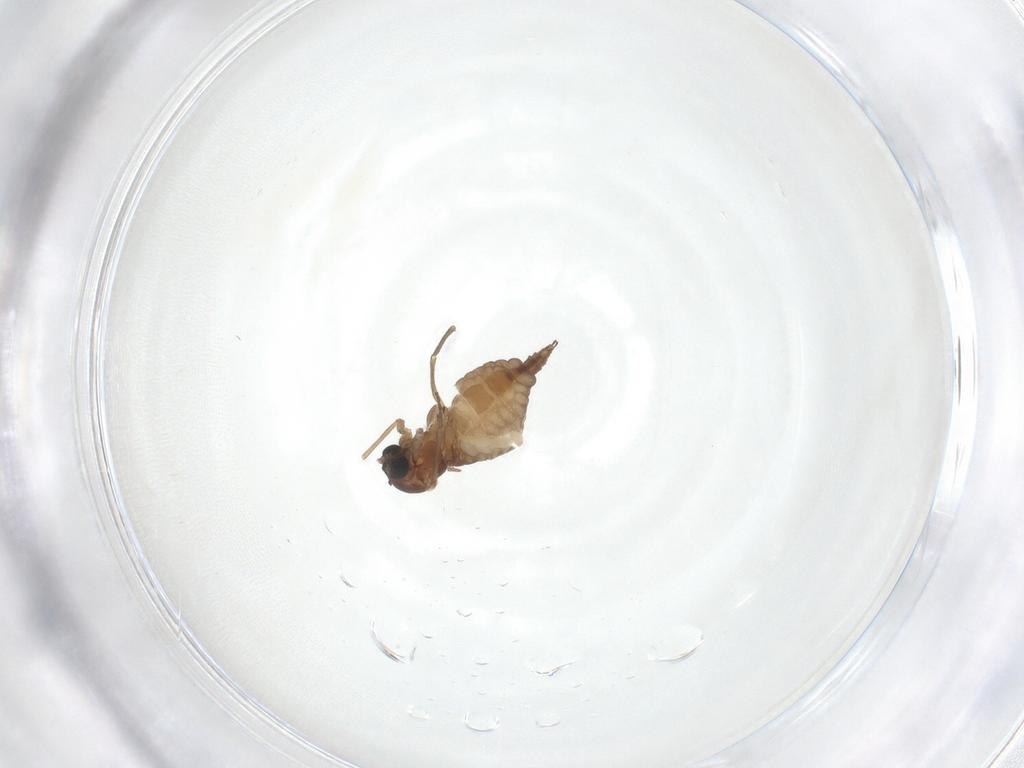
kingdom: Animalia
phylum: Arthropoda
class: Insecta
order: Diptera
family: Sciaridae
